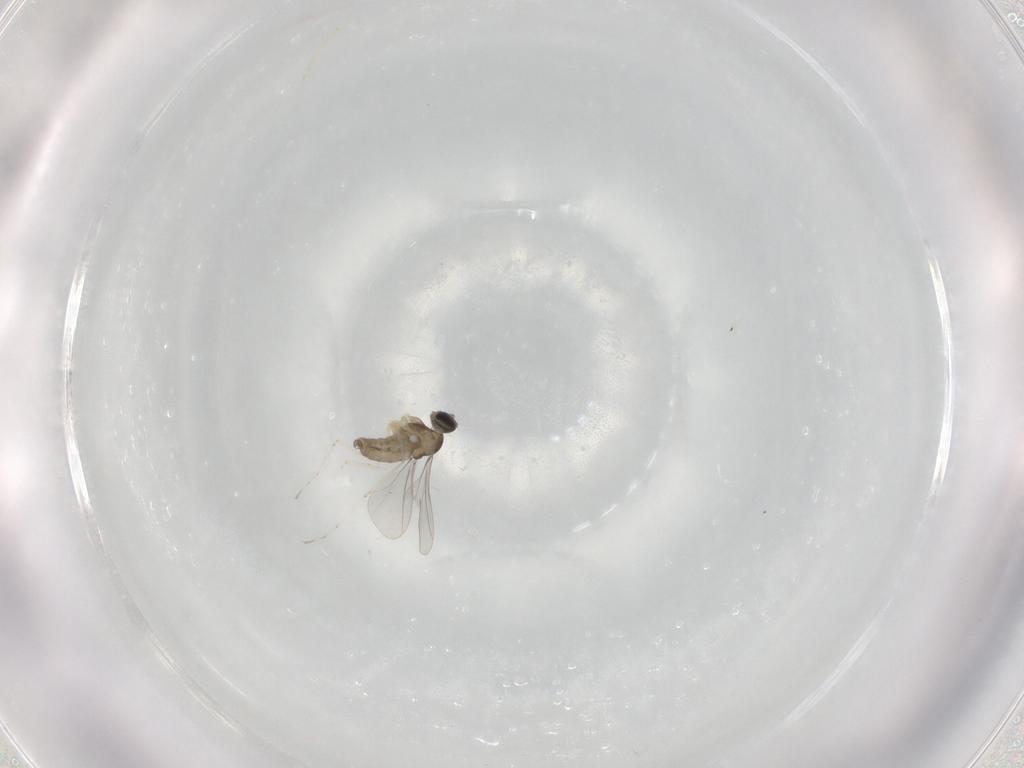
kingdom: Animalia
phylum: Arthropoda
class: Insecta
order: Diptera
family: Cecidomyiidae
